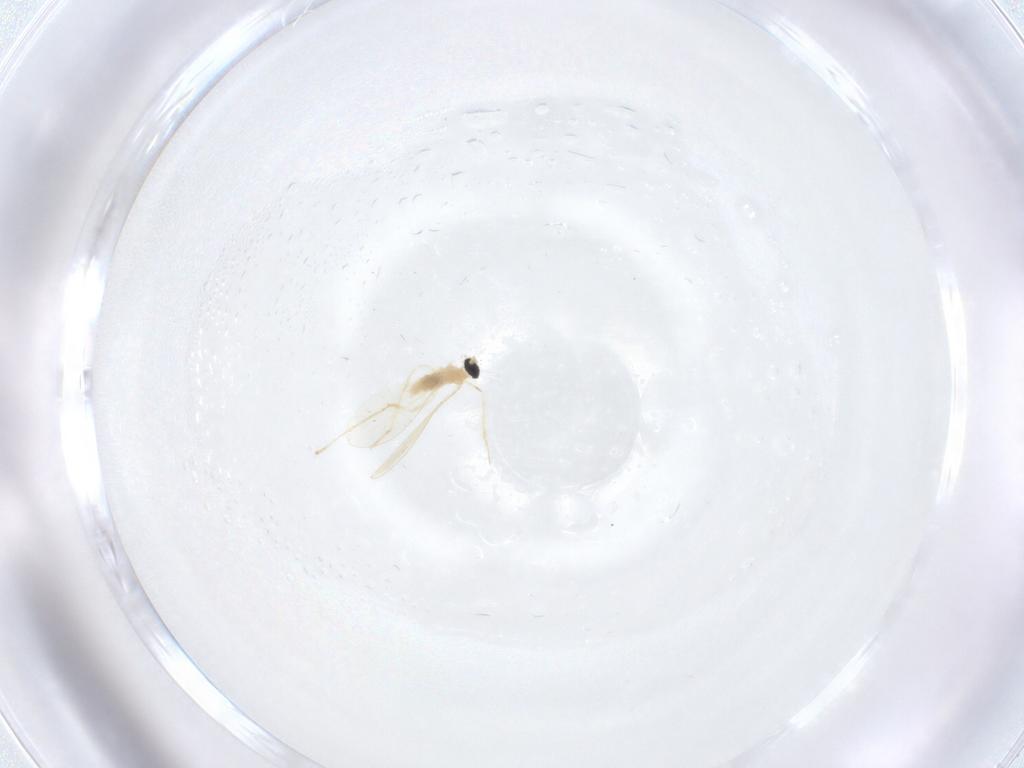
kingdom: Animalia
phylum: Arthropoda
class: Insecta
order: Diptera
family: Cecidomyiidae
